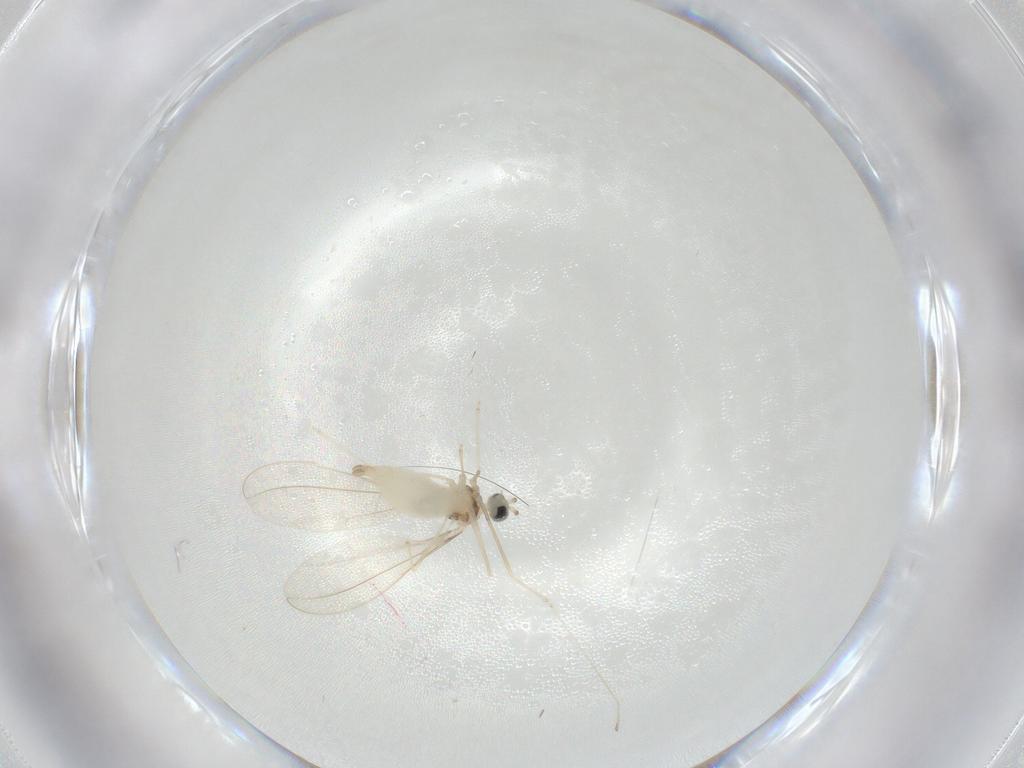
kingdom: Animalia
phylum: Arthropoda
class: Insecta
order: Diptera
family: Cecidomyiidae
